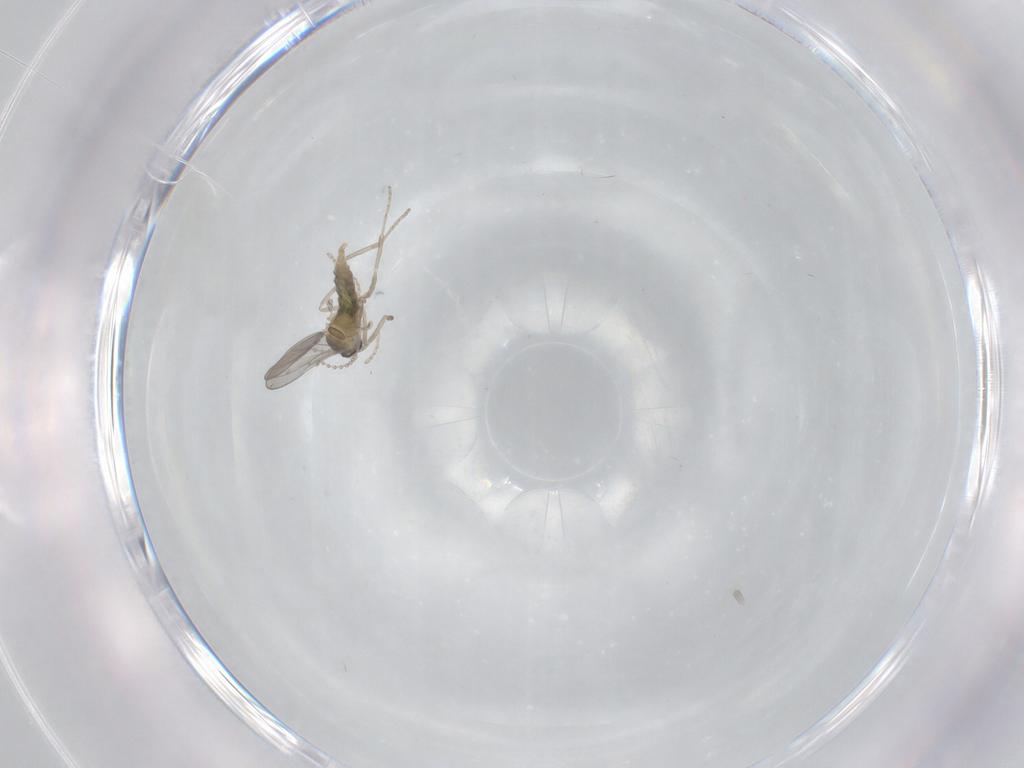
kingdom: Animalia
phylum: Arthropoda
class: Insecta
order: Diptera
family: Cecidomyiidae
